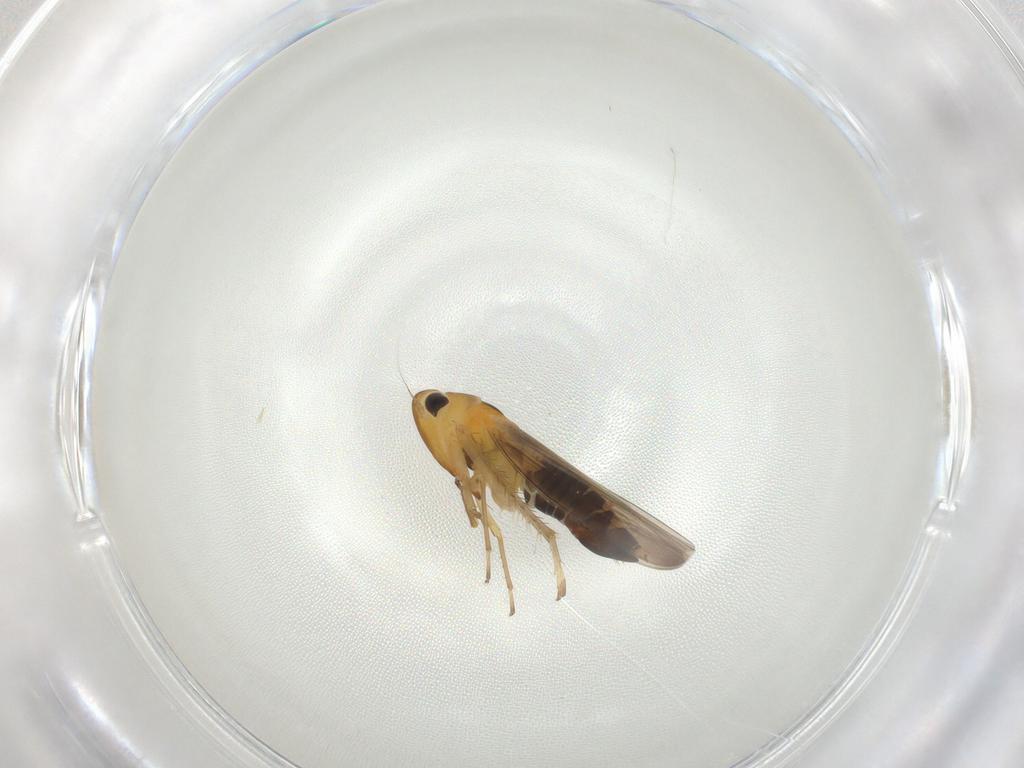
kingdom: Animalia
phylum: Arthropoda
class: Insecta
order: Hemiptera
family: Cicadellidae
